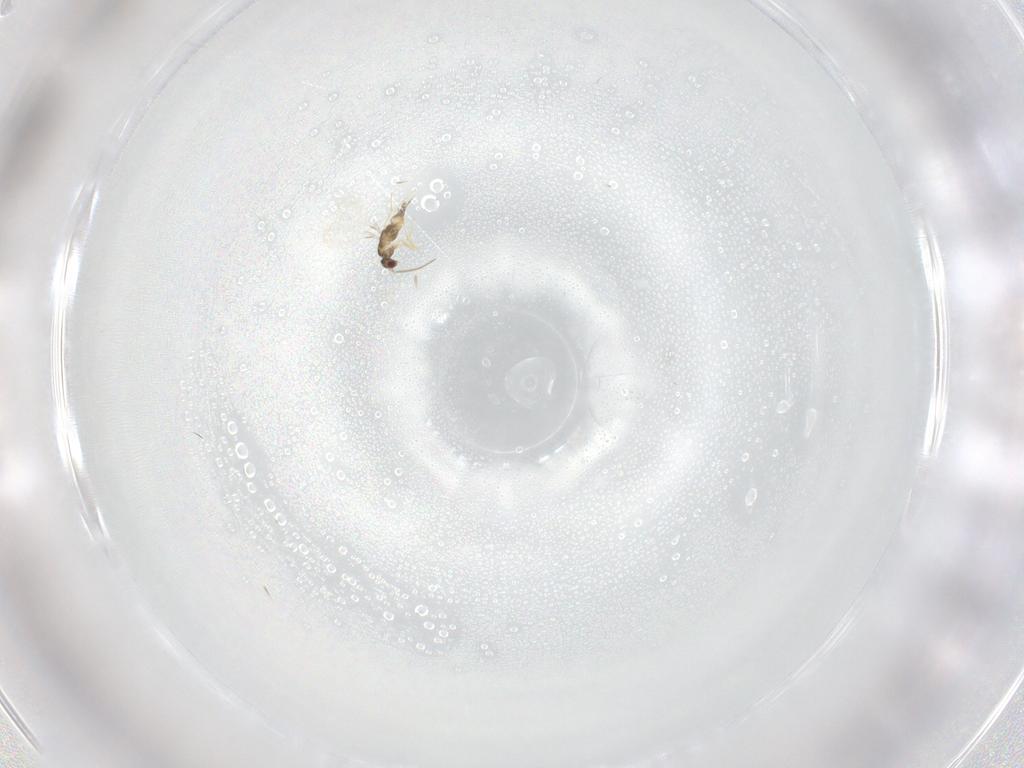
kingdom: Animalia
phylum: Arthropoda
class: Insecta
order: Hymenoptera
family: Mymaridae
